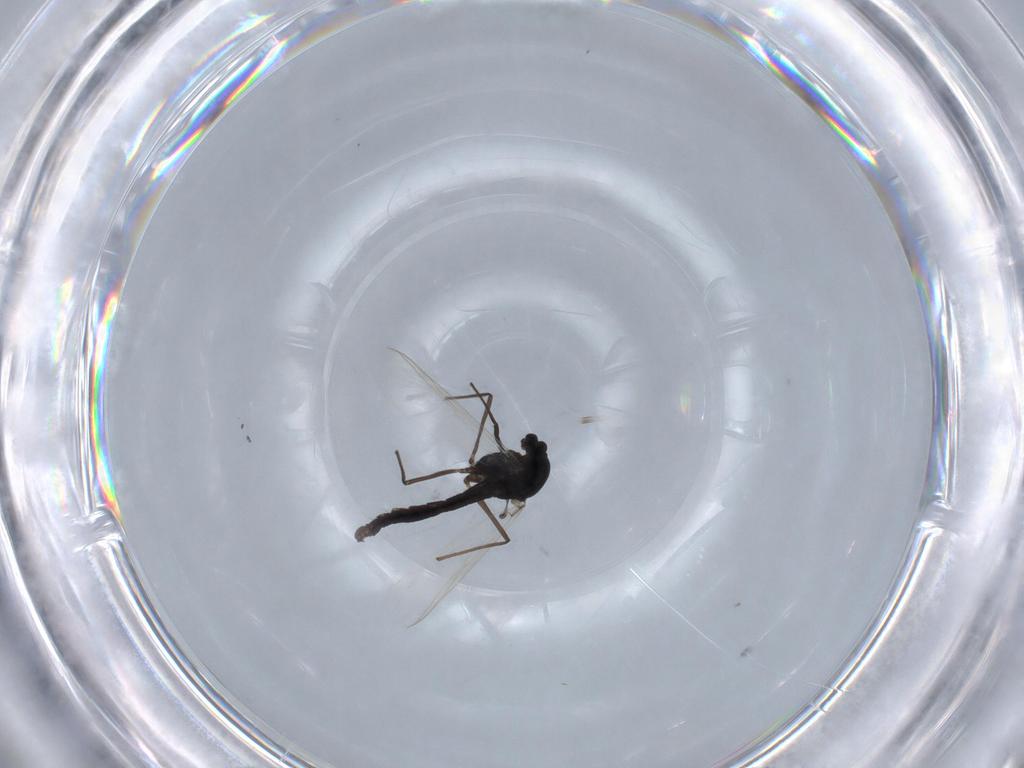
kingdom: Animalia
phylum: Arthropoda
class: Insecta
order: Diptera
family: Chironomidae
